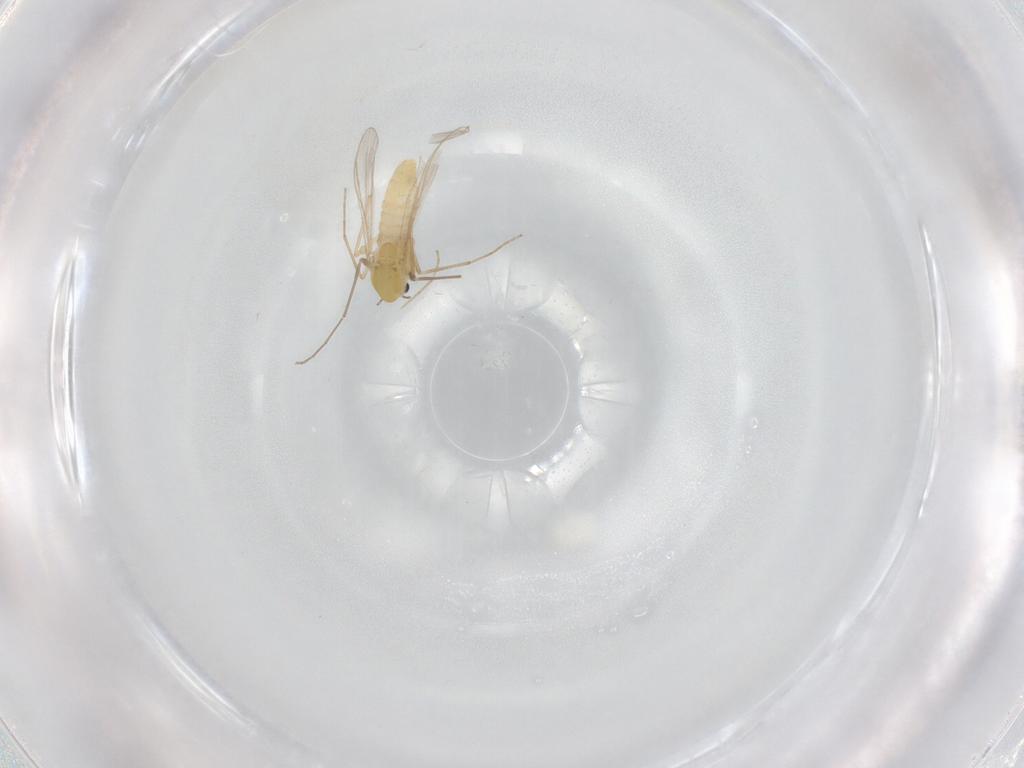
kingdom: Animalia
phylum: Arthropoda
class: Insecta
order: Diptera
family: Chironomidae
